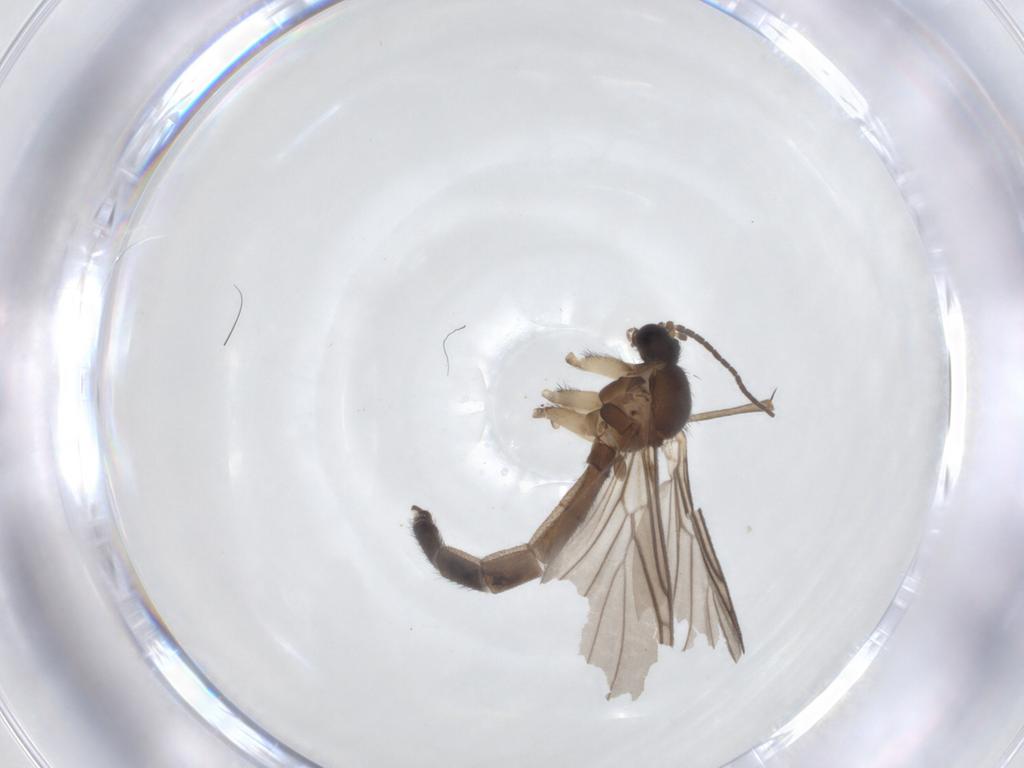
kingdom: Animalia
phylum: Arthropoda
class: Insecta
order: Diptera
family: Keroplatidae
